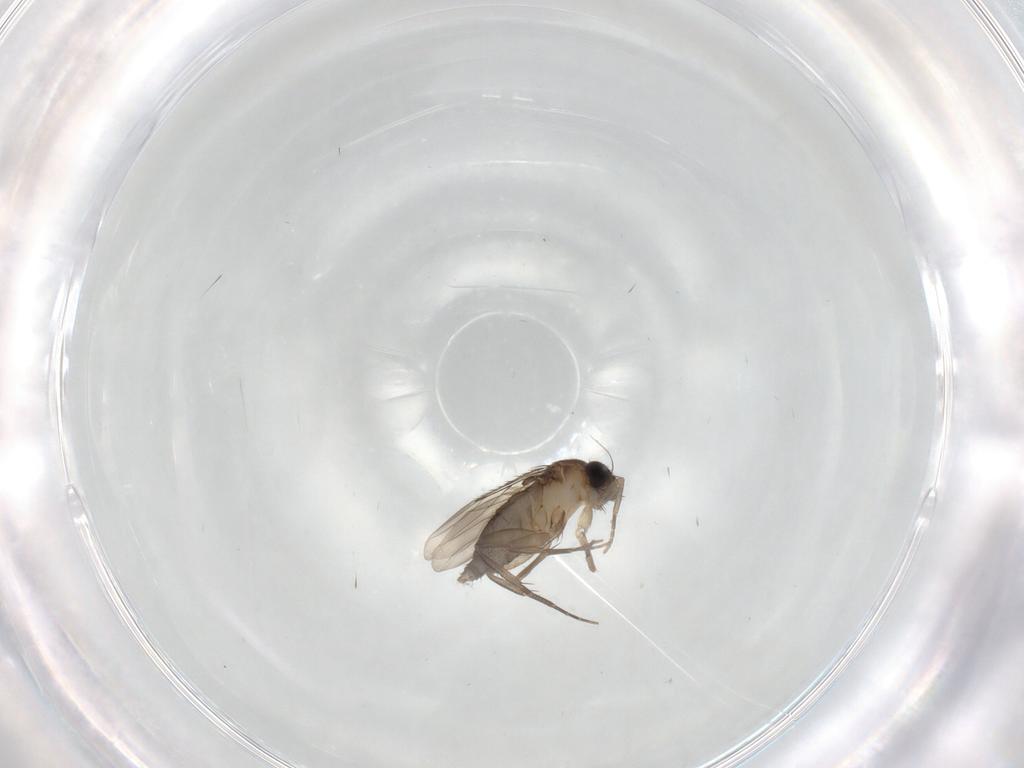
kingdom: Animalia
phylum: Arthropoda
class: Insecta
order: Diptera
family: Phoridae
